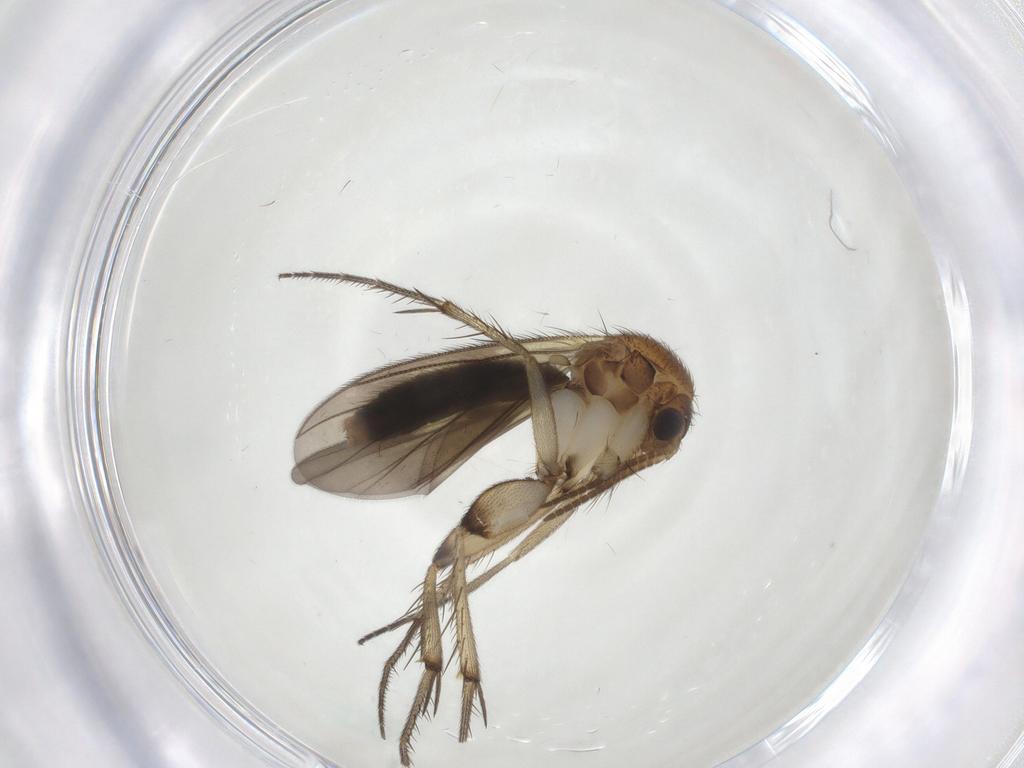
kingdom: Animalia
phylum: Arthropoda
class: Insecta
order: Diptera
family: Mycetophilidae
